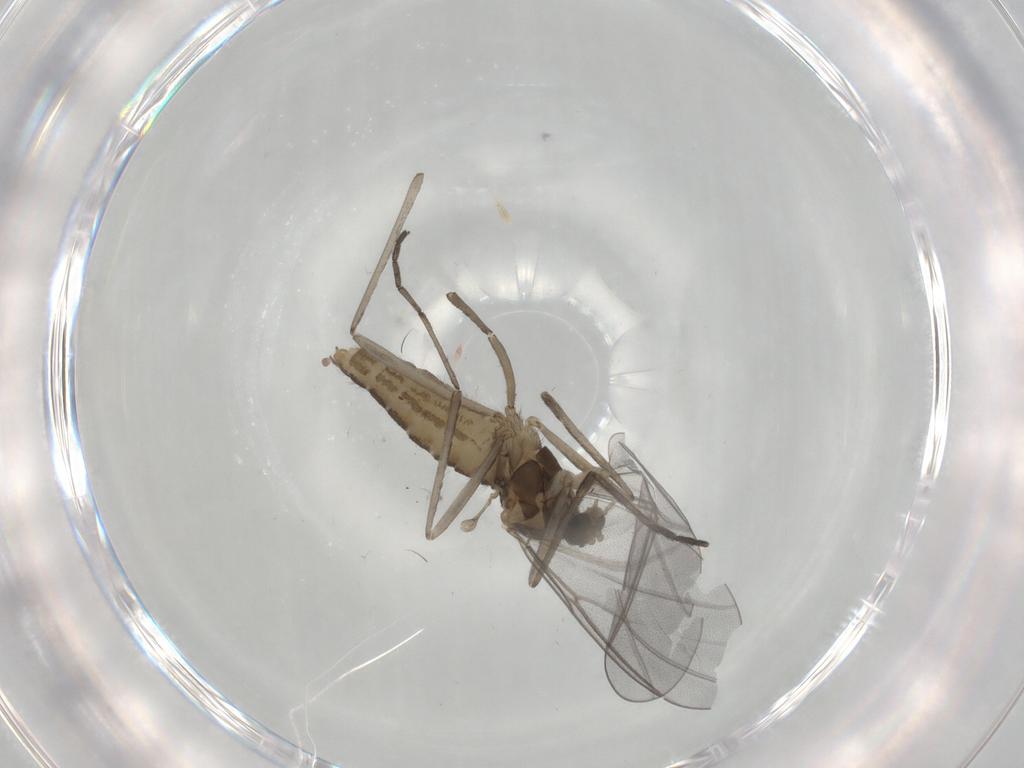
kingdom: Animalia
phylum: Arthropoda
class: Insecta
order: Diptera
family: Cecidomyiidae
